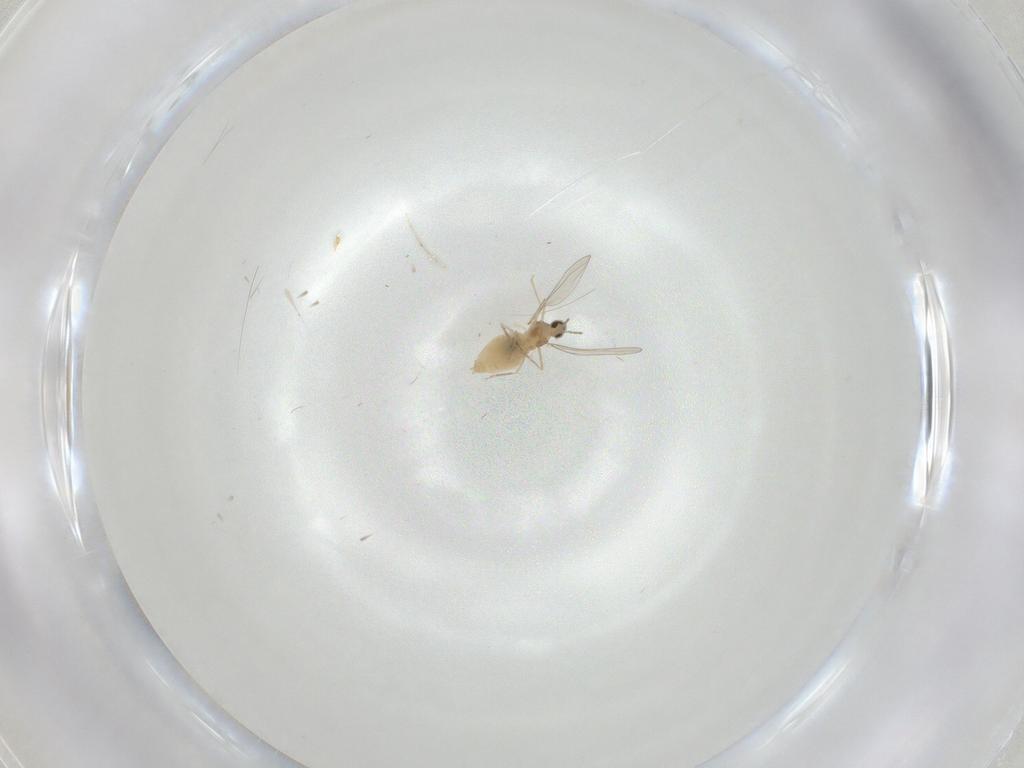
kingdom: Animalia
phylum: Arthropoda
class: Insecta
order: Diptera
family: Cecidomyiidae
